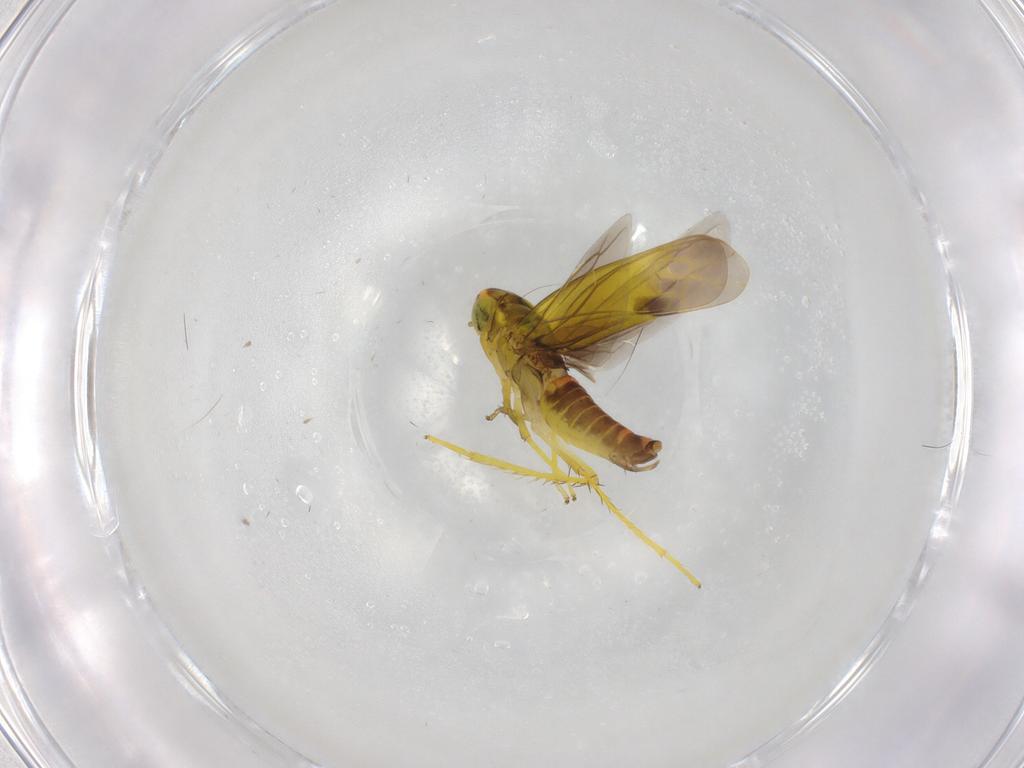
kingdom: Animalia
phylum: Arthropoda
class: Insecta
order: Hemiptera
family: Cicadellidae
